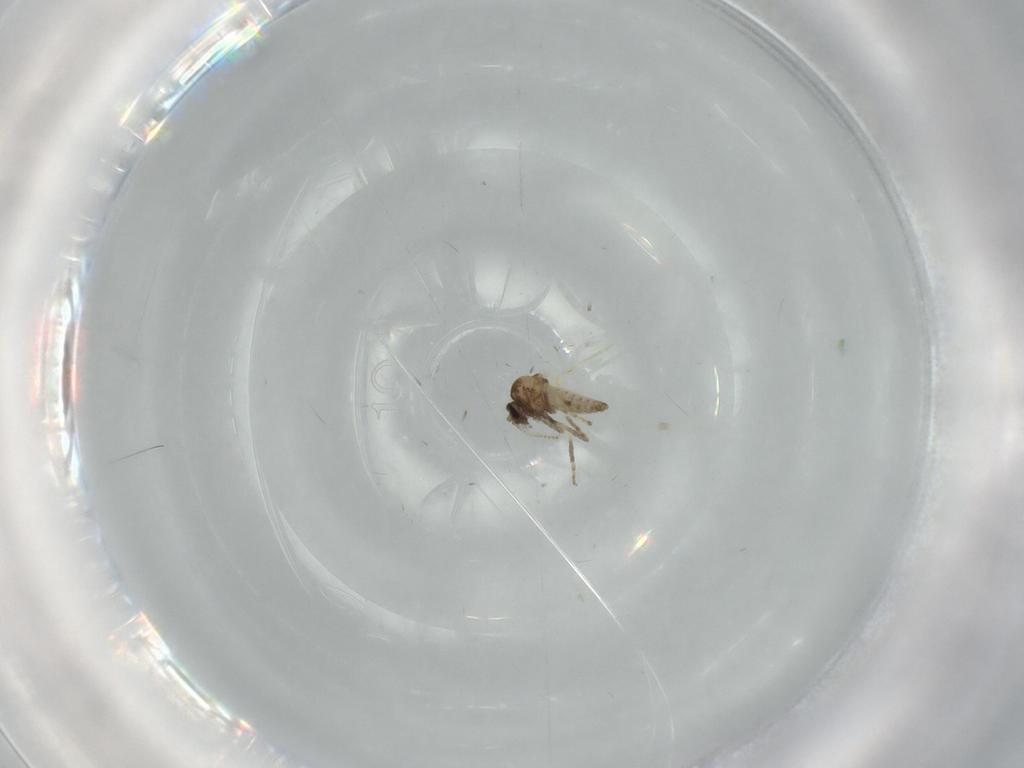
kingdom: Animalia
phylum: Arthropoda
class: Insecta
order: Diptera
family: Ceratopogonidae
